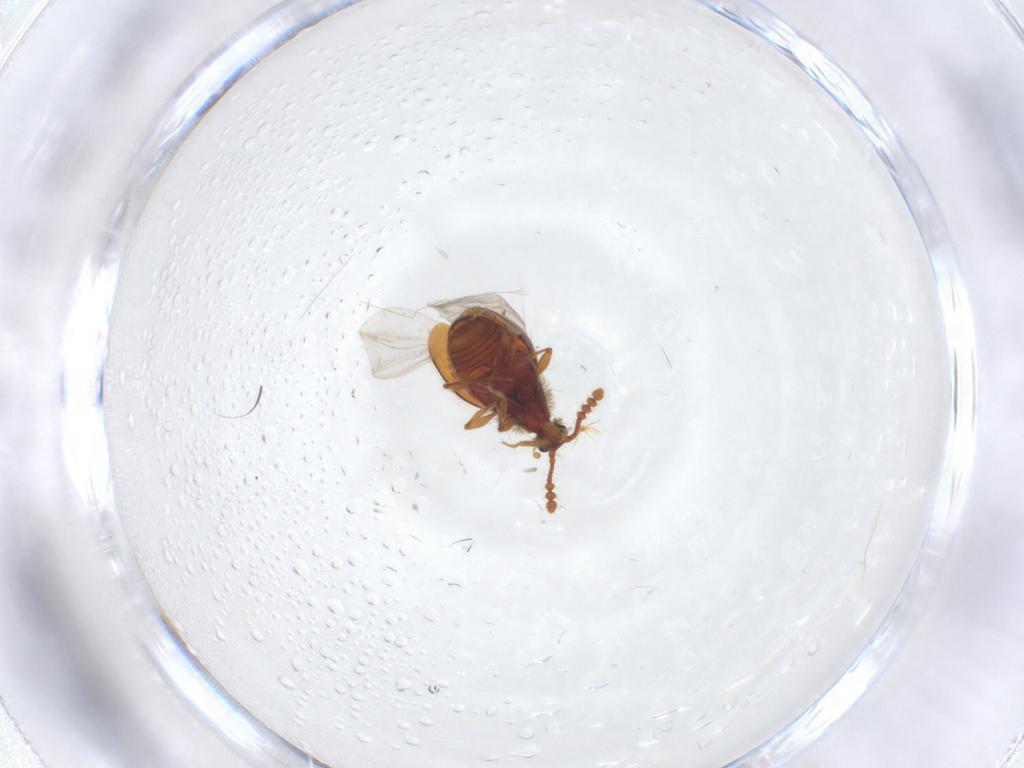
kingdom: Animalia
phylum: Arthropoda
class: Insecta
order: Coleoptera
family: Staphylinidae
